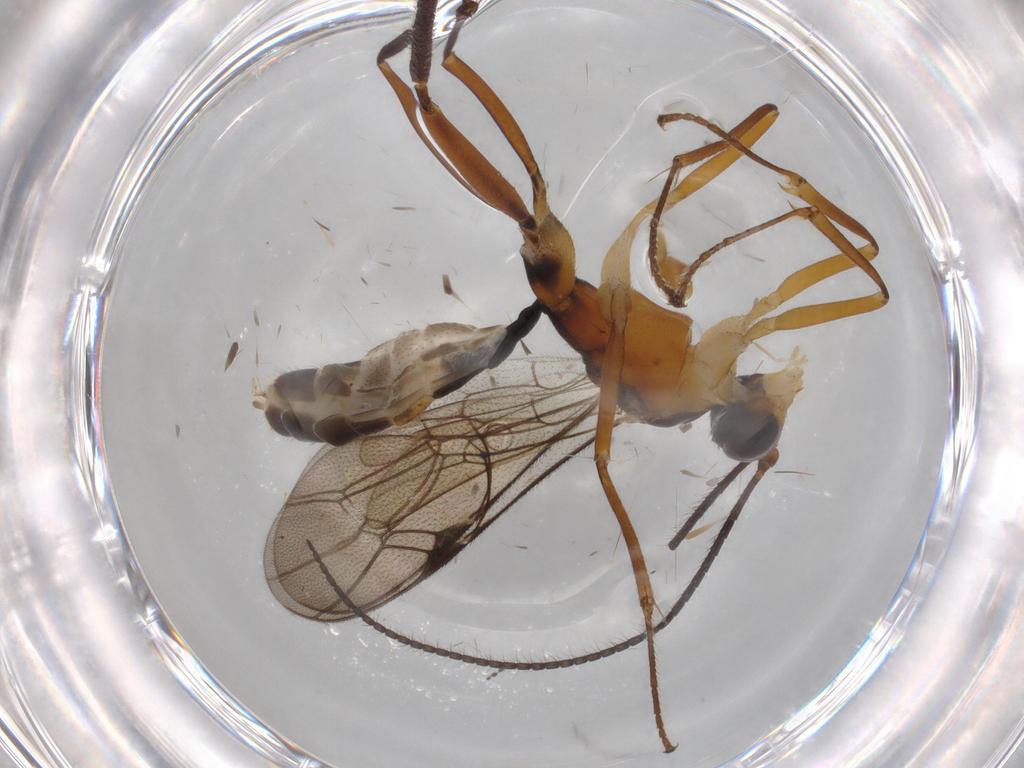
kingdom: Animalia
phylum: Arthropoda
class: Insecta
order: Hymenoptera
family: Diapriidae
